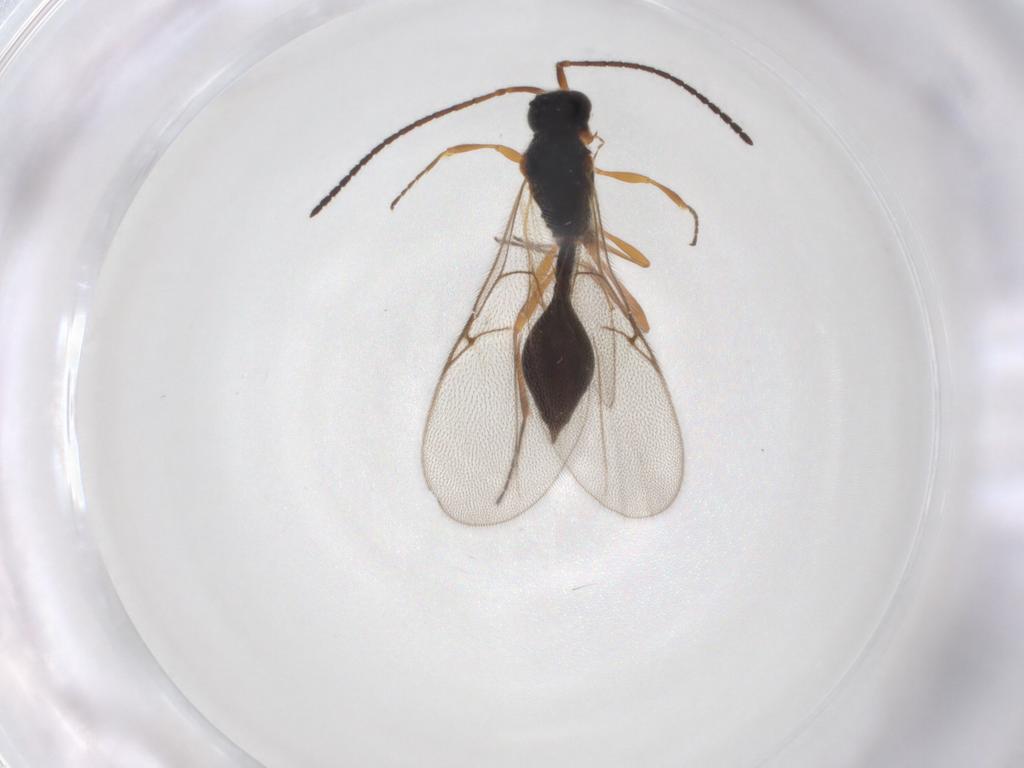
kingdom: Animalia
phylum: Arthropoda
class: Insecta
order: Hymenoptera
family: Diapriidae
